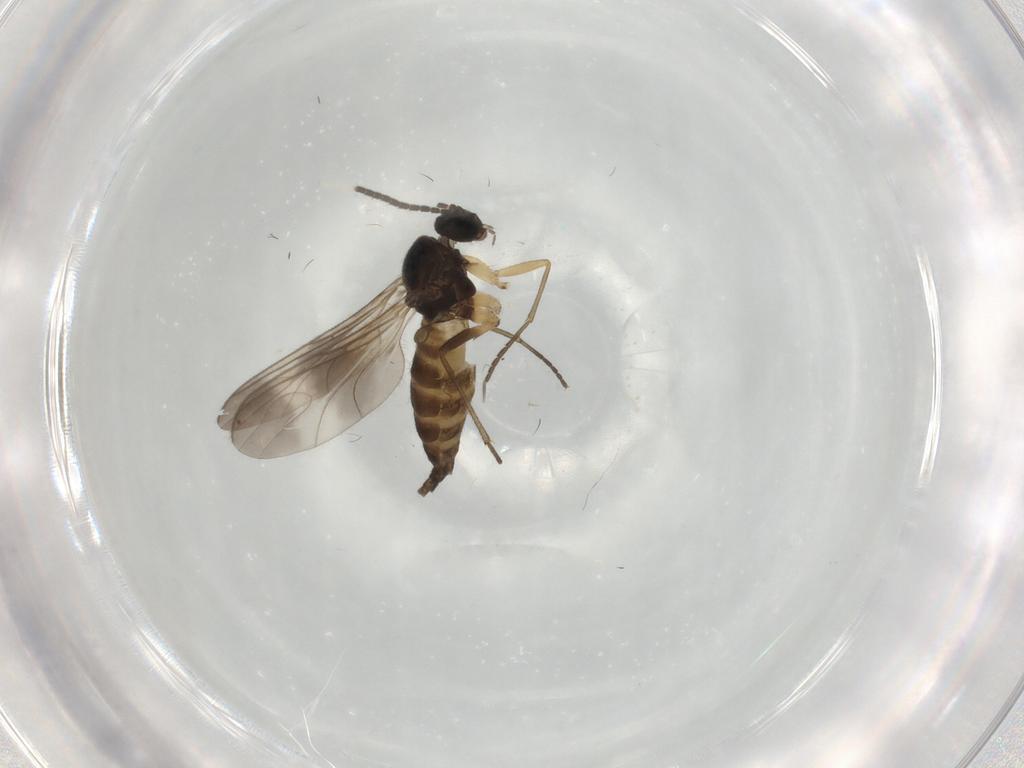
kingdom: Animalia
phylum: Arthropoda
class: Insecta
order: Diptera
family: Sciaridae
